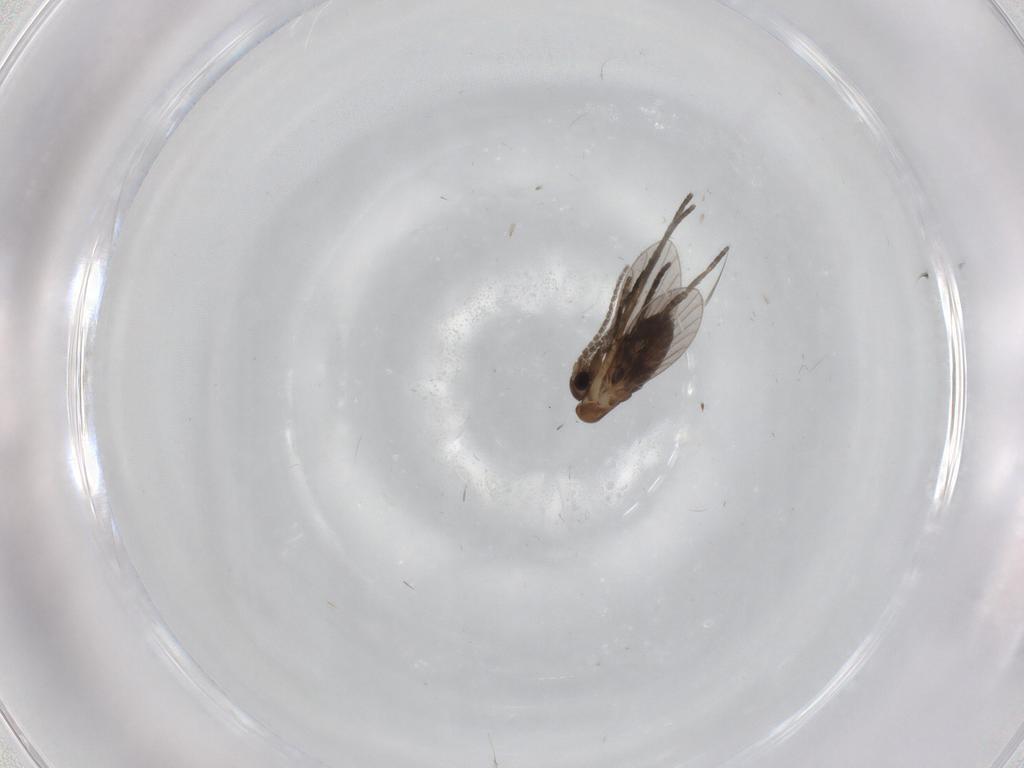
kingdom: Animalia
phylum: Arthropoda
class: Insecta
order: Diptera
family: Psychodidae
